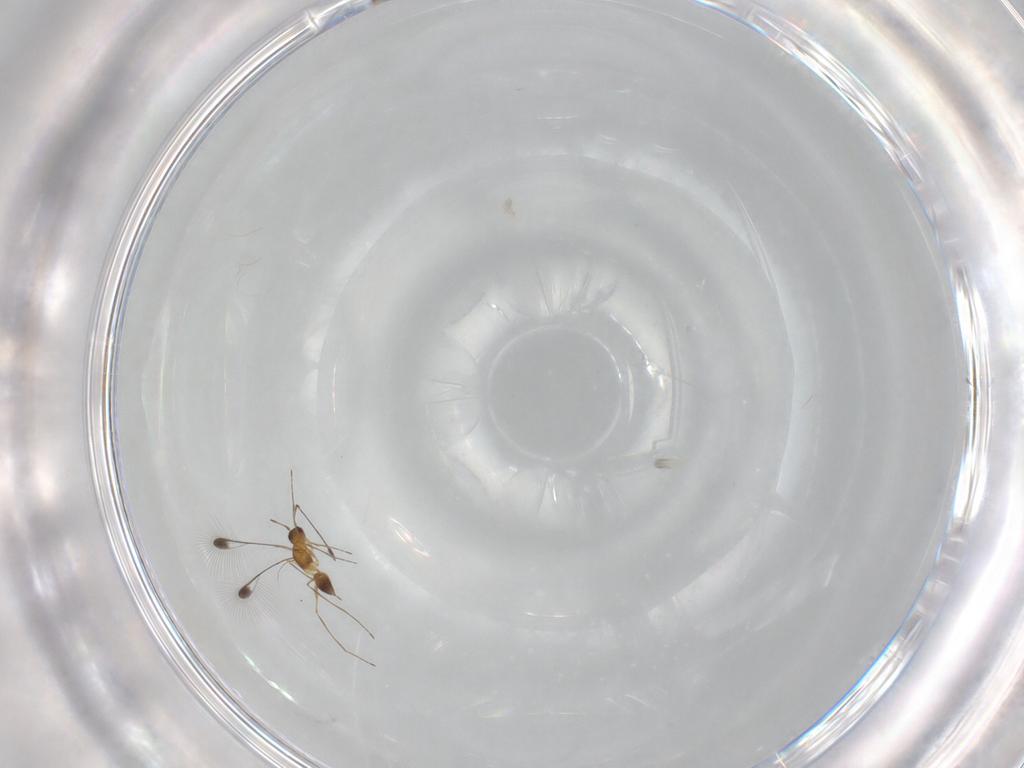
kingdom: Animalia
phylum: Arthropoda
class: Insecta
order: Hymenoptera
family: Mymaridae
